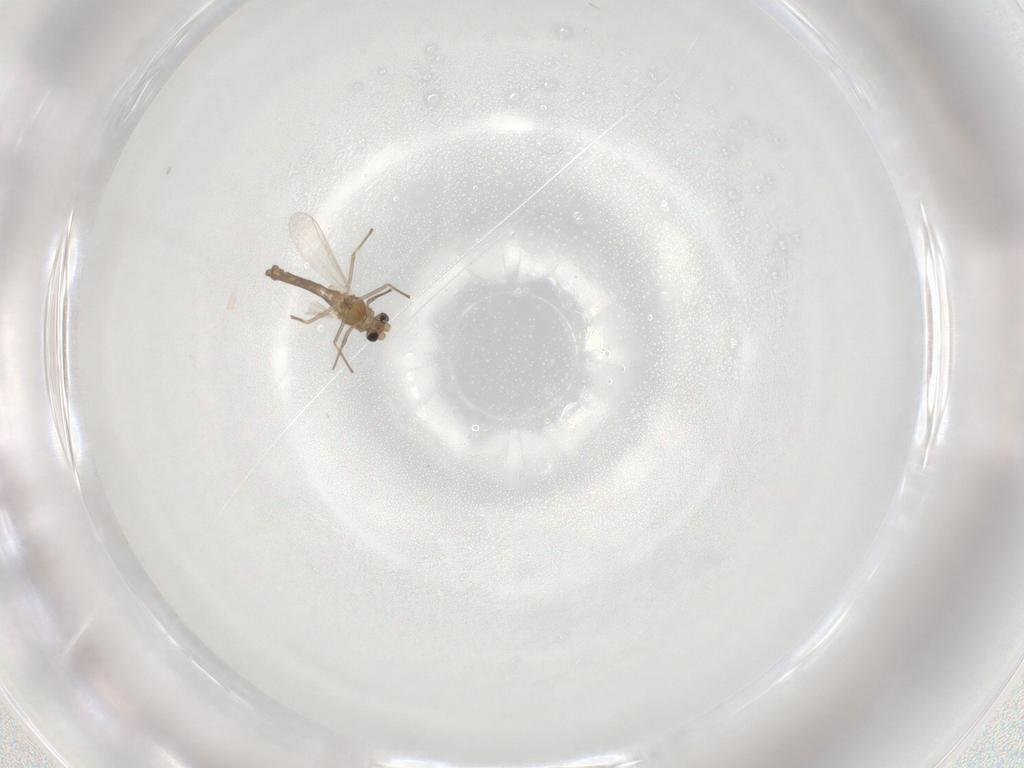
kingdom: Animalia
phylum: Arthropoda
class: Insecta
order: Diptera
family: Chironomidae
